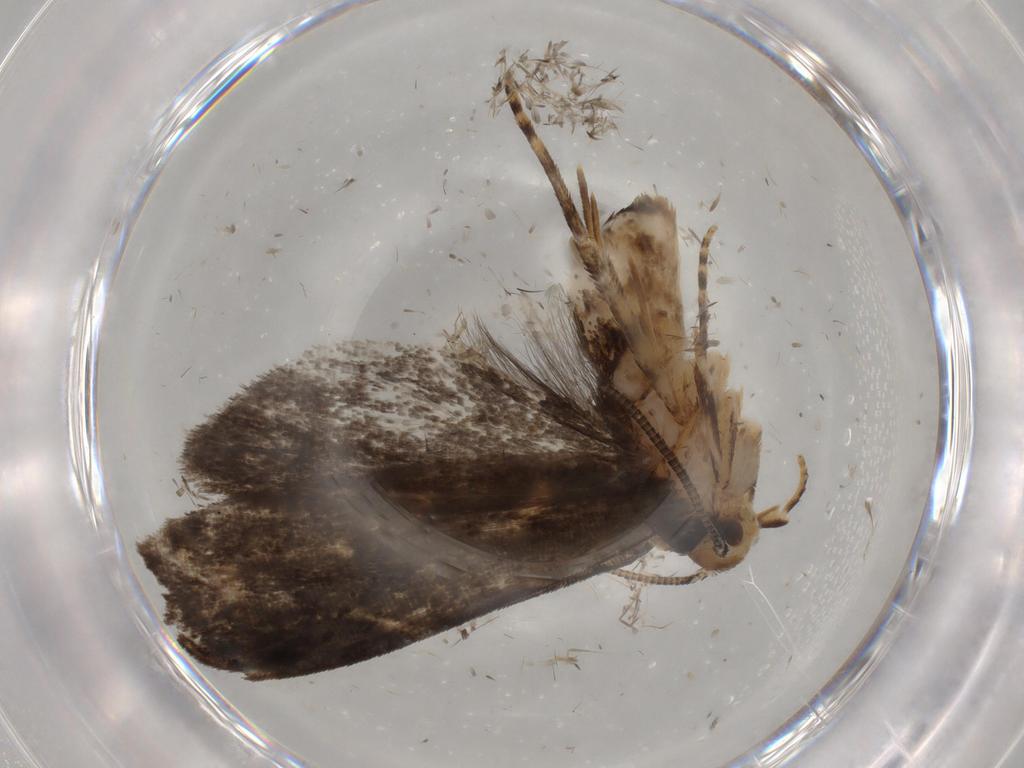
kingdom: Animalia
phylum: Arthropoda
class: Insecta
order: Lepidoptera
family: Dryadaulidae
